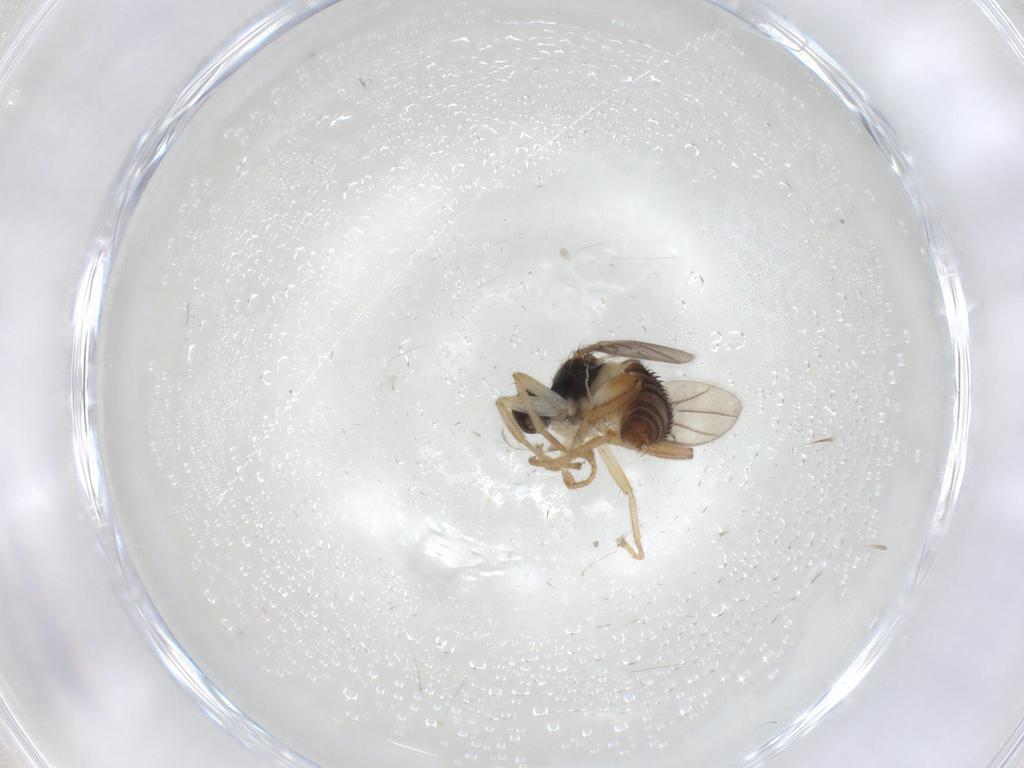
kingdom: Animalia
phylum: Arthropoda
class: Insecta
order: Diptera
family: Hybotidae
